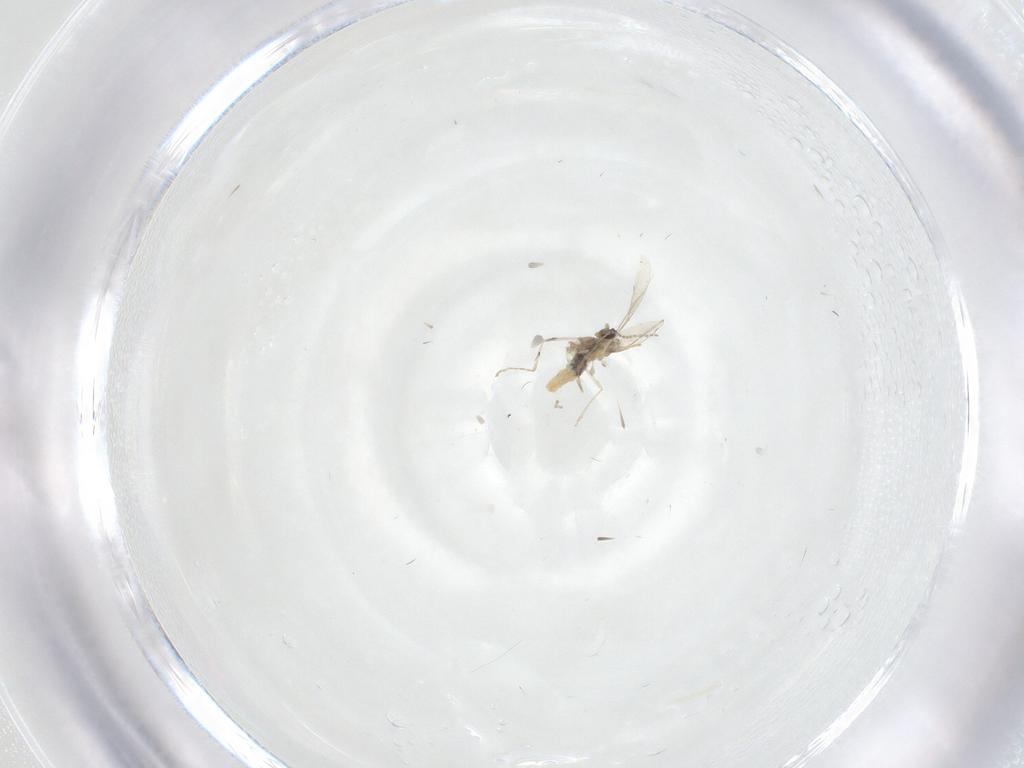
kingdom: Animalia
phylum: Arthropoda
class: Insecta
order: Diptera
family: Culicidae
